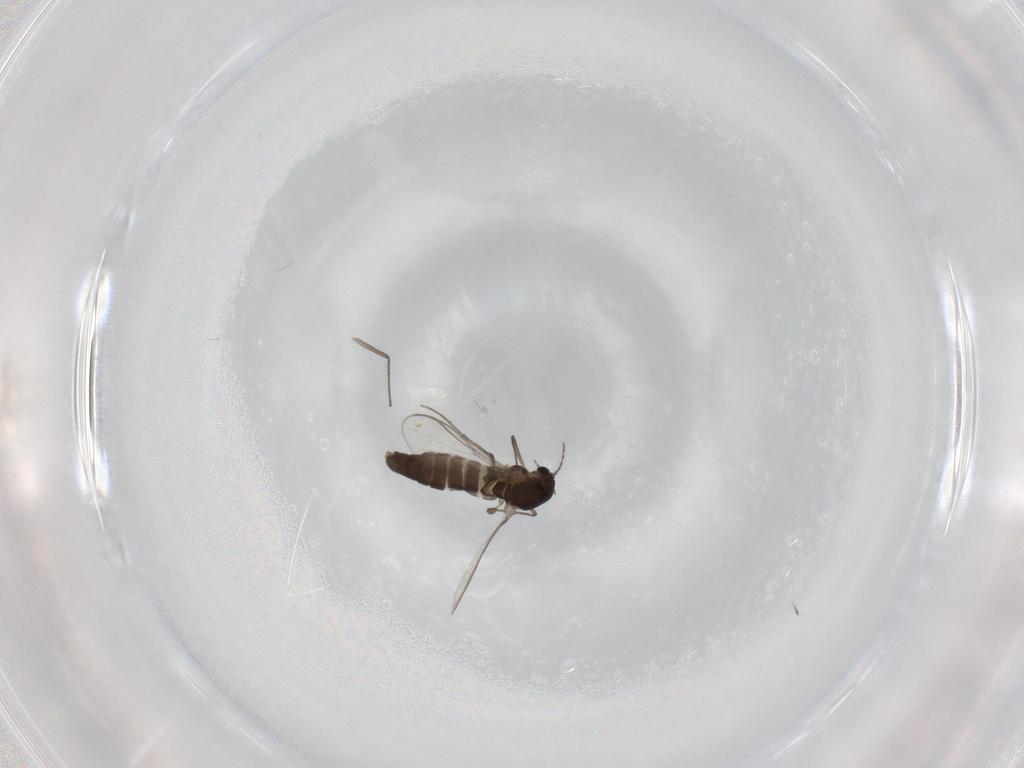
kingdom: Animalia
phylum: Arthropoda
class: Insecta
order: Diptera
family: Chironomidae
